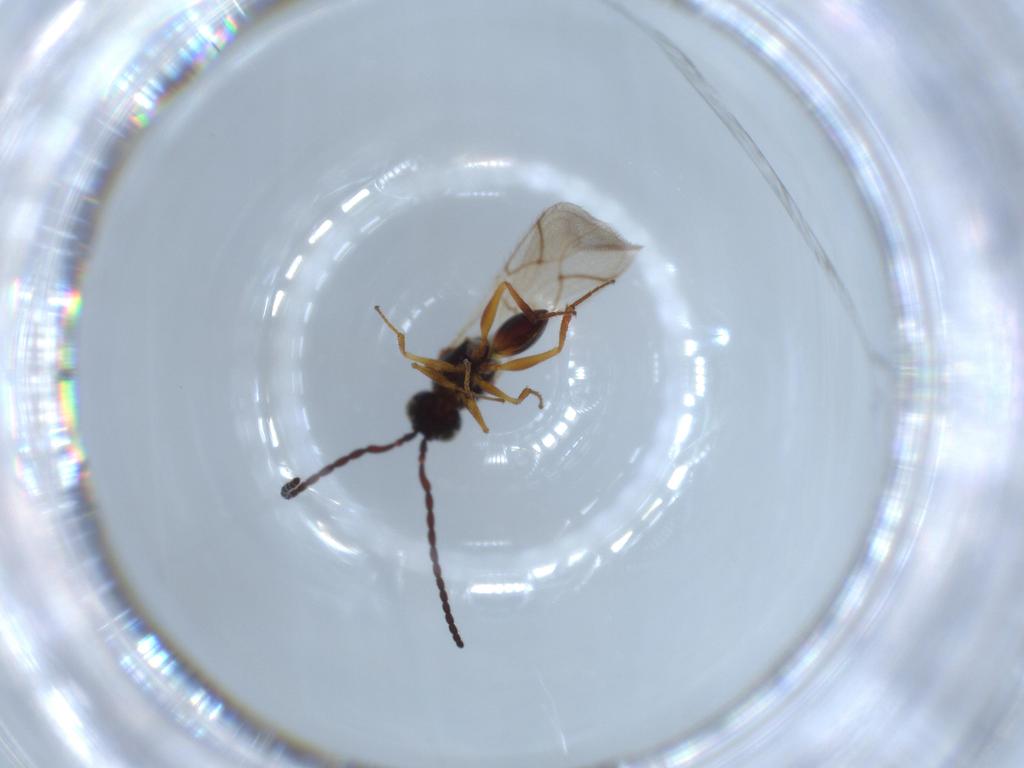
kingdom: Animalia
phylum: Arthropoda
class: Insecta
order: Hymenoptera
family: Figitidae
